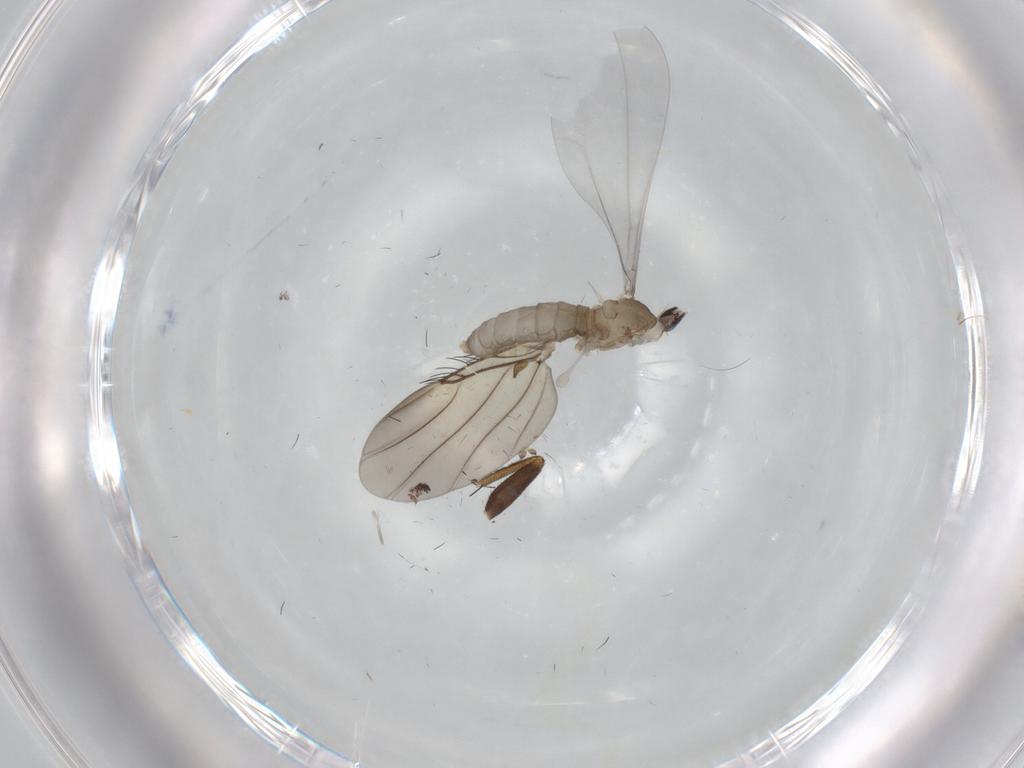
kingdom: Animalia
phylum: Arthropoda
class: Insecta
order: Diptera
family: Cecidomyiidae
